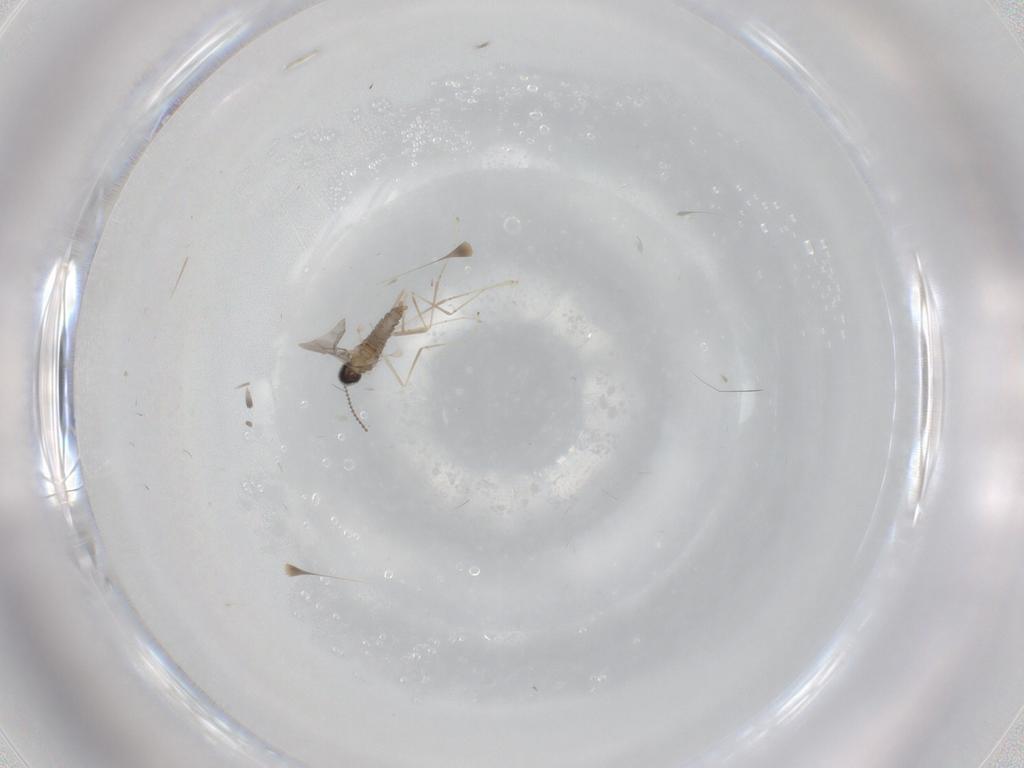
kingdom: Animalia
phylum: Arthropoda
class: Insecta
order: Diptera
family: Cecidomyiidae
